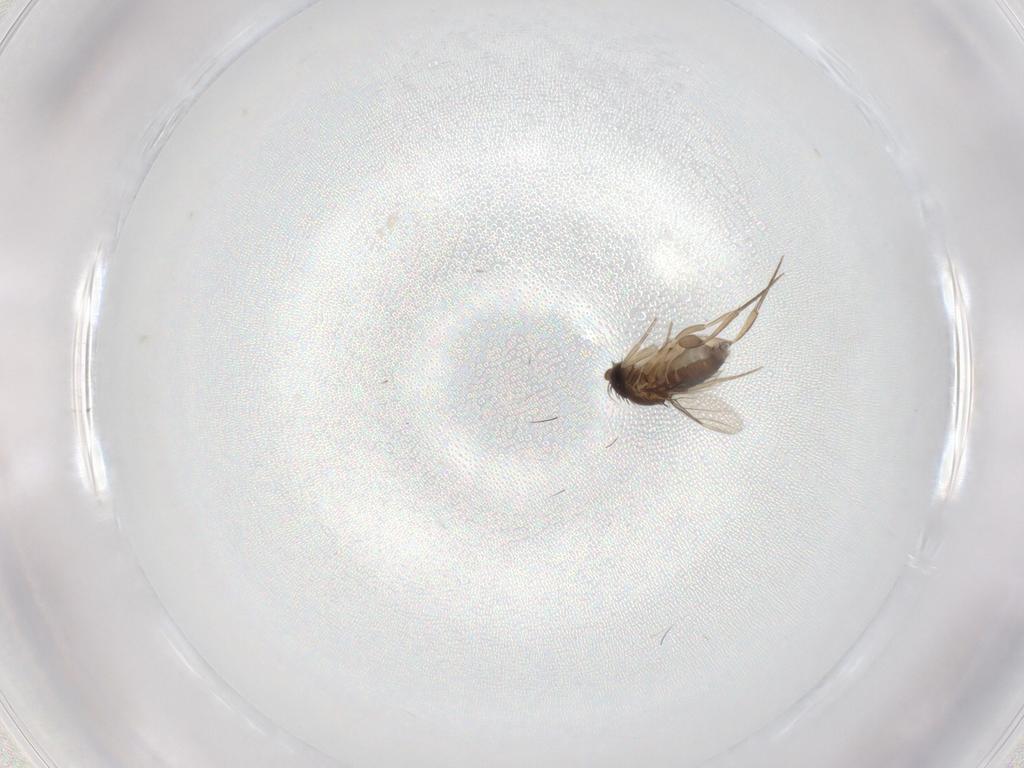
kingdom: Animalia
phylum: Arthropoda
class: Insecta
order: Diptera
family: Phoridae
